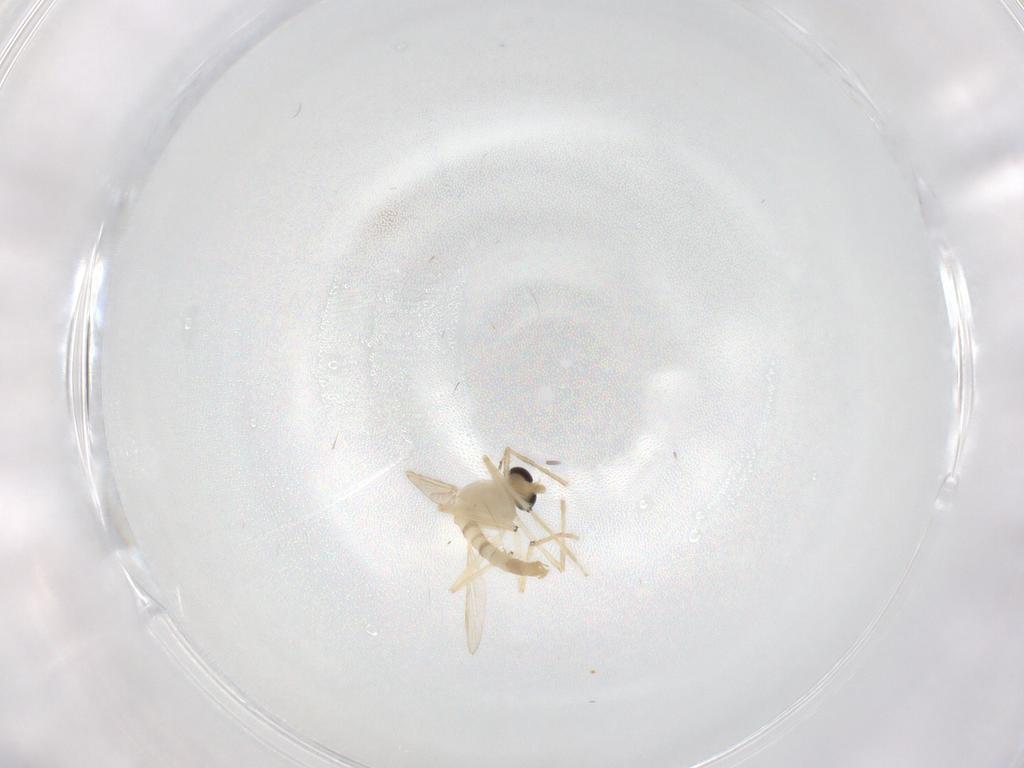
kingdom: Animalia
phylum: Arthropoda
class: Insecta
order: Diptera
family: Chironomidae
